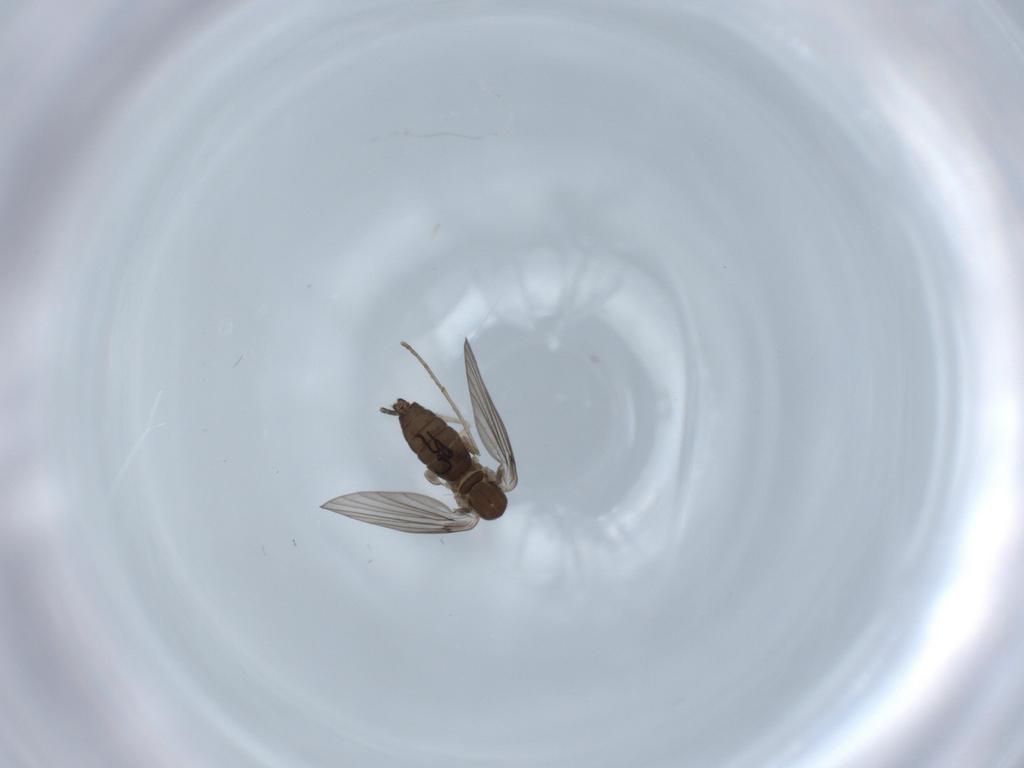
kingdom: Animalia
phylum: Arthropoda
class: Insecta
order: Diptera
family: Psychodidae
